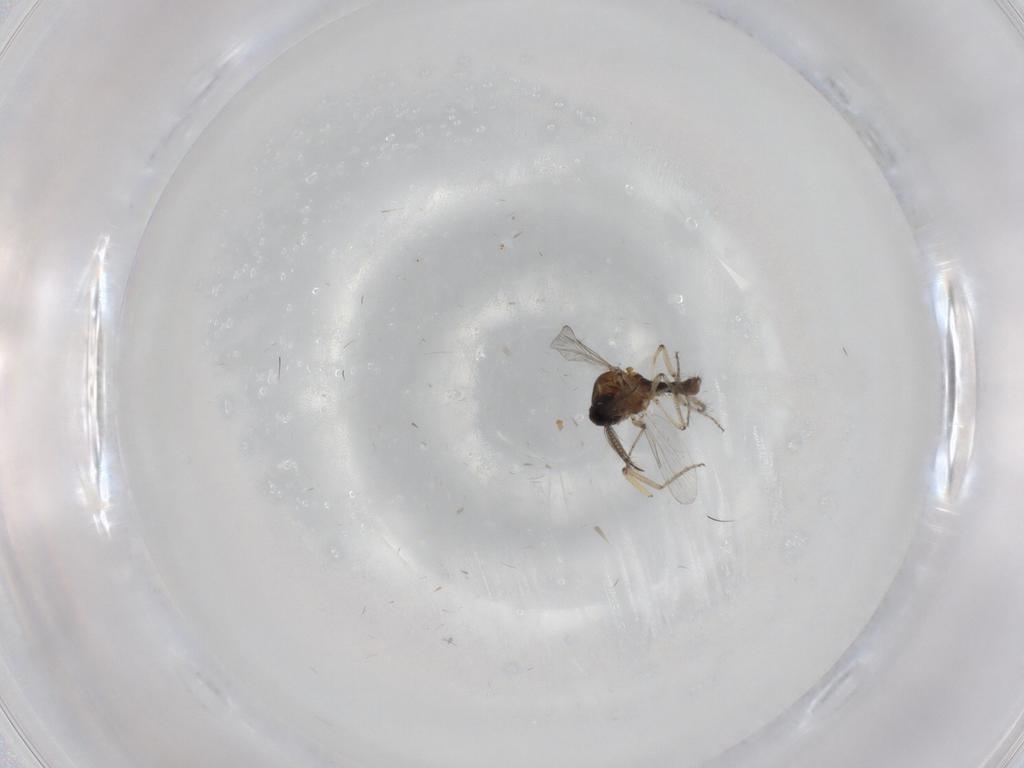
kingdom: Animalia
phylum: Arthropoda
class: Insecta
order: Diptera
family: Ceratopogonidae
